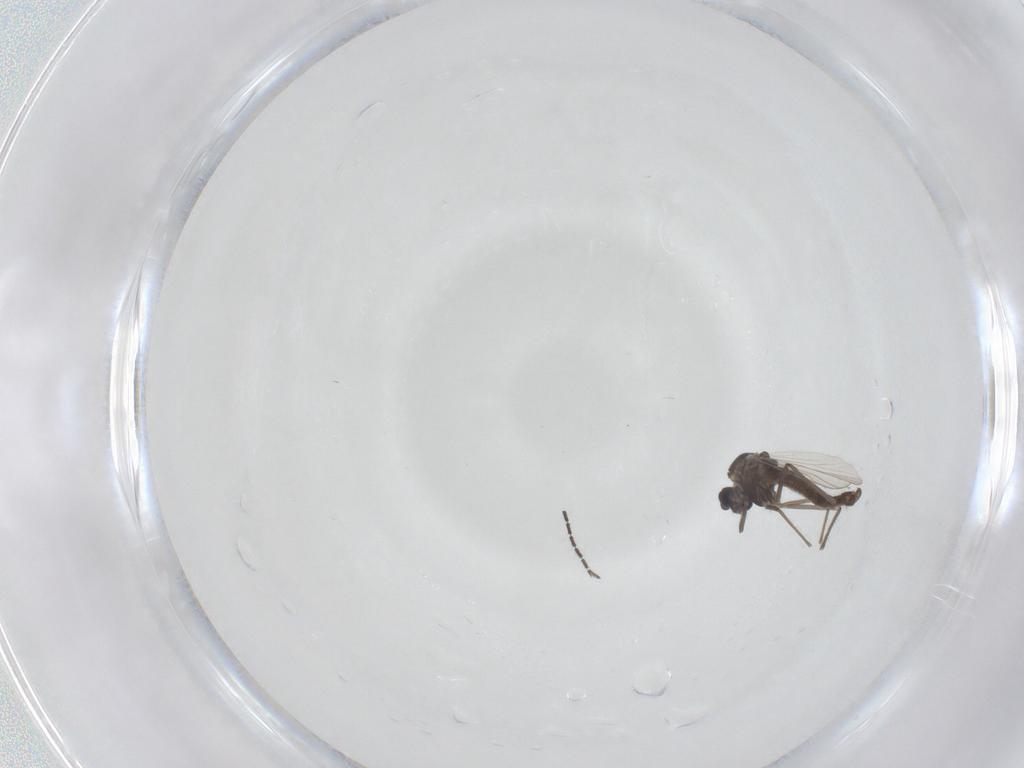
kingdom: Animalia
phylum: Arthropoda
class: Insecta
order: Diptera
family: Chironomidae
